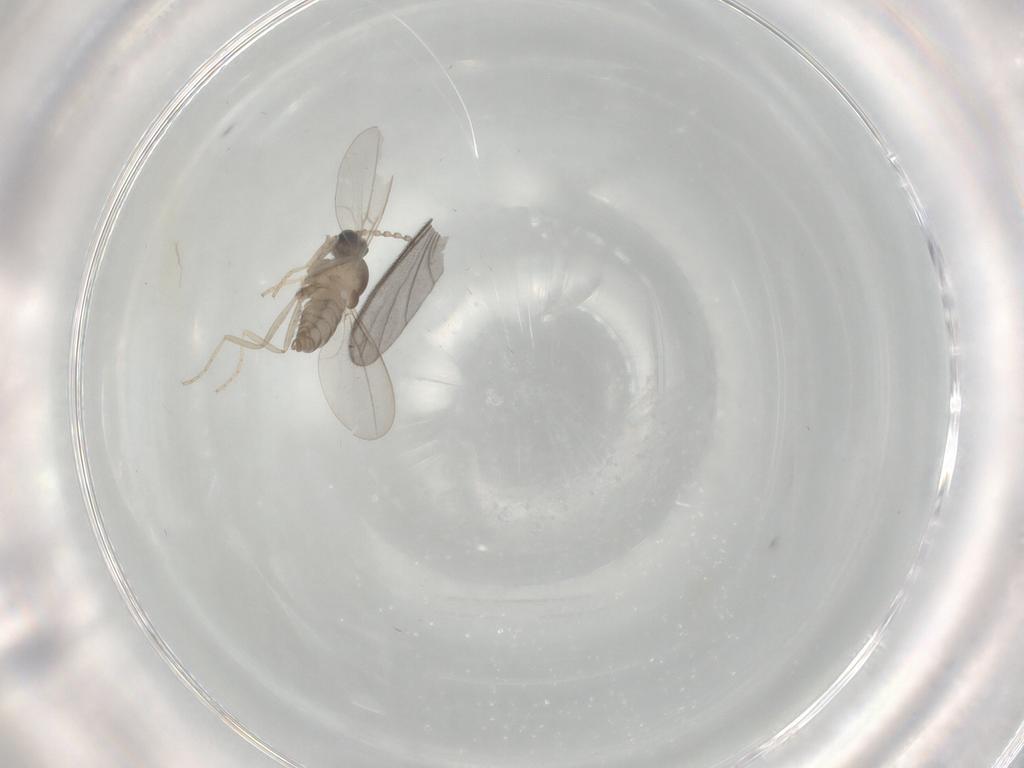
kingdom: Animalia
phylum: Arthropoda
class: Insecta
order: Diptera
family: Cecidomyiidae
